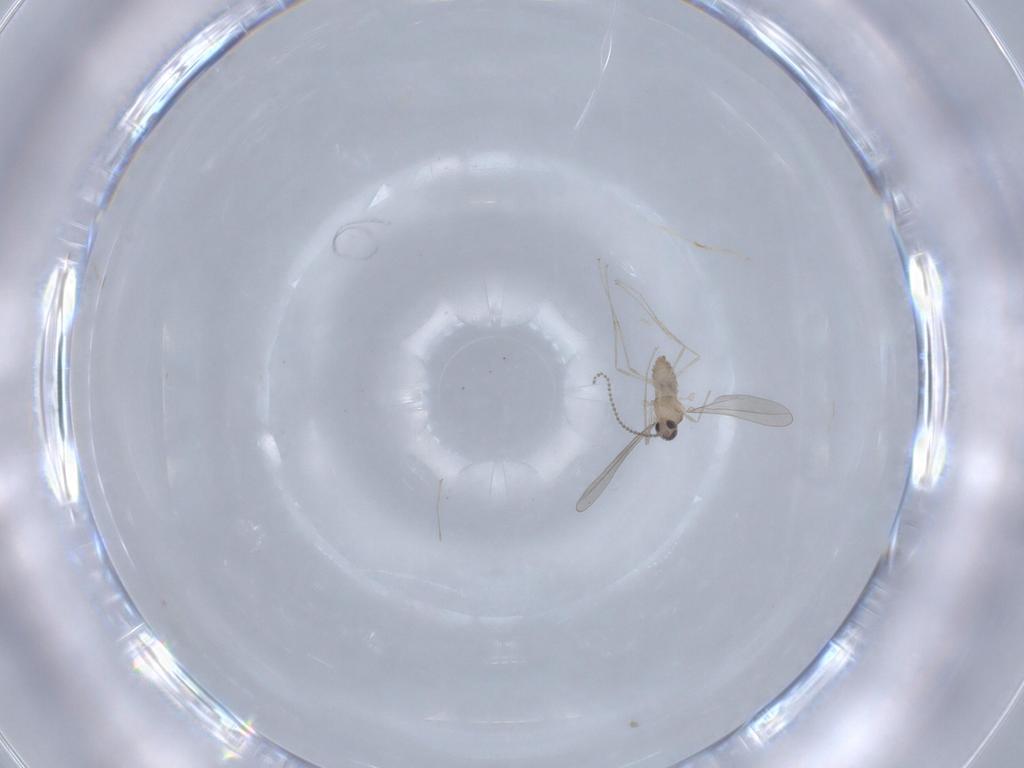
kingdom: Animalia
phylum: Arthropoda
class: Insecta
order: Diptera
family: Cecidomyiidae
